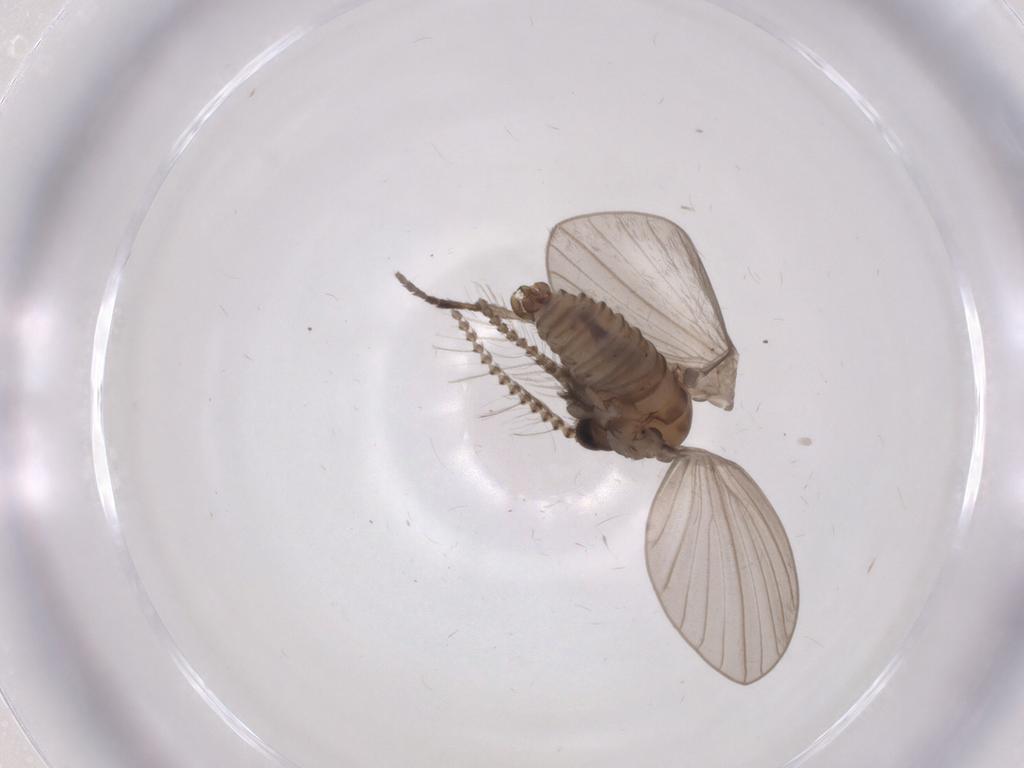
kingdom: Animalia
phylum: Arthropoda
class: Insecta
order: Diptera
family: Psychodidae
